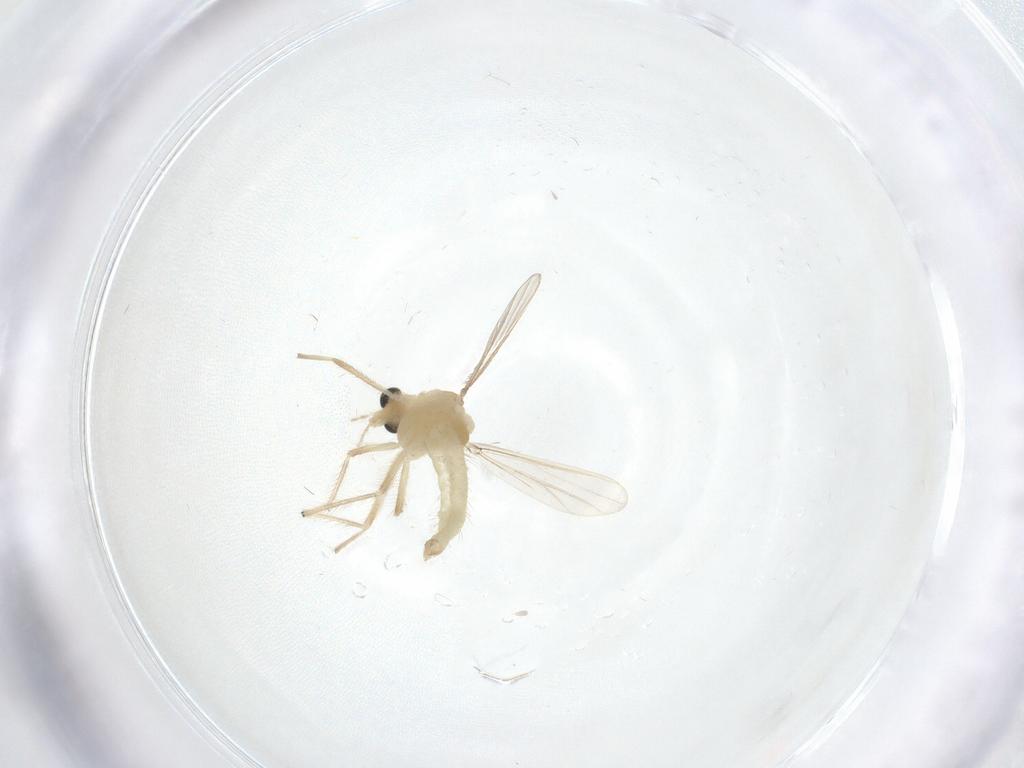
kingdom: Animalia
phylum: Arthropoda
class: Insecta
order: Diptera
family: Chironomidae
